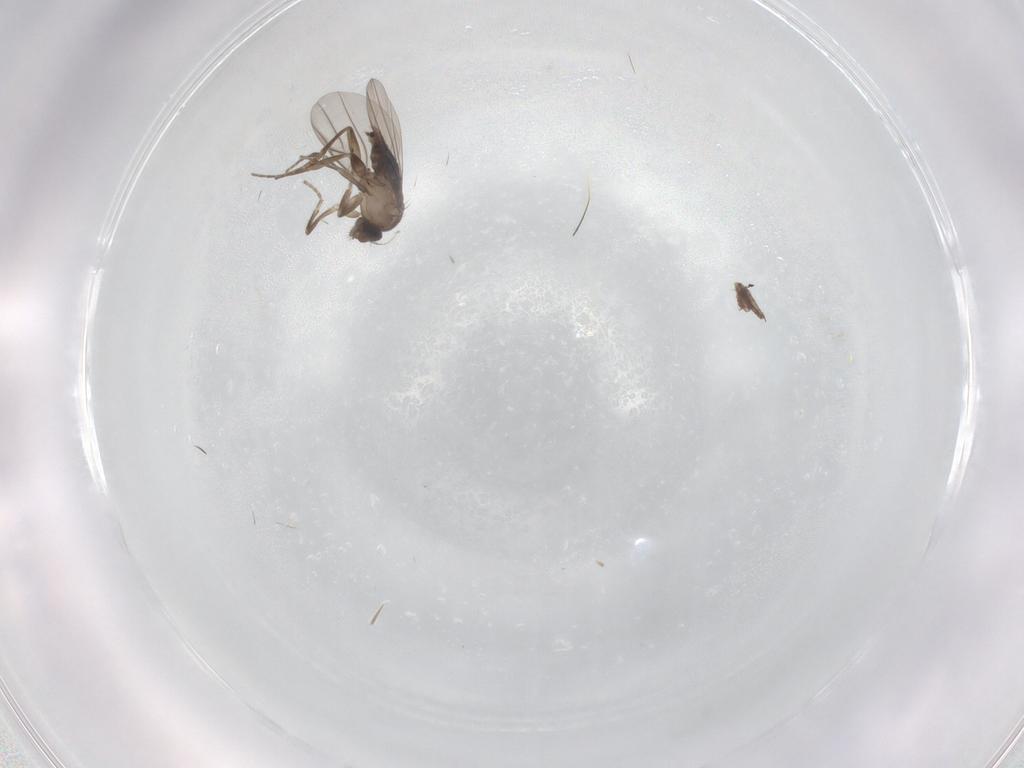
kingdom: Animalia
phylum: Arthropoda
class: Insecta
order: Diptera
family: Phoridae
